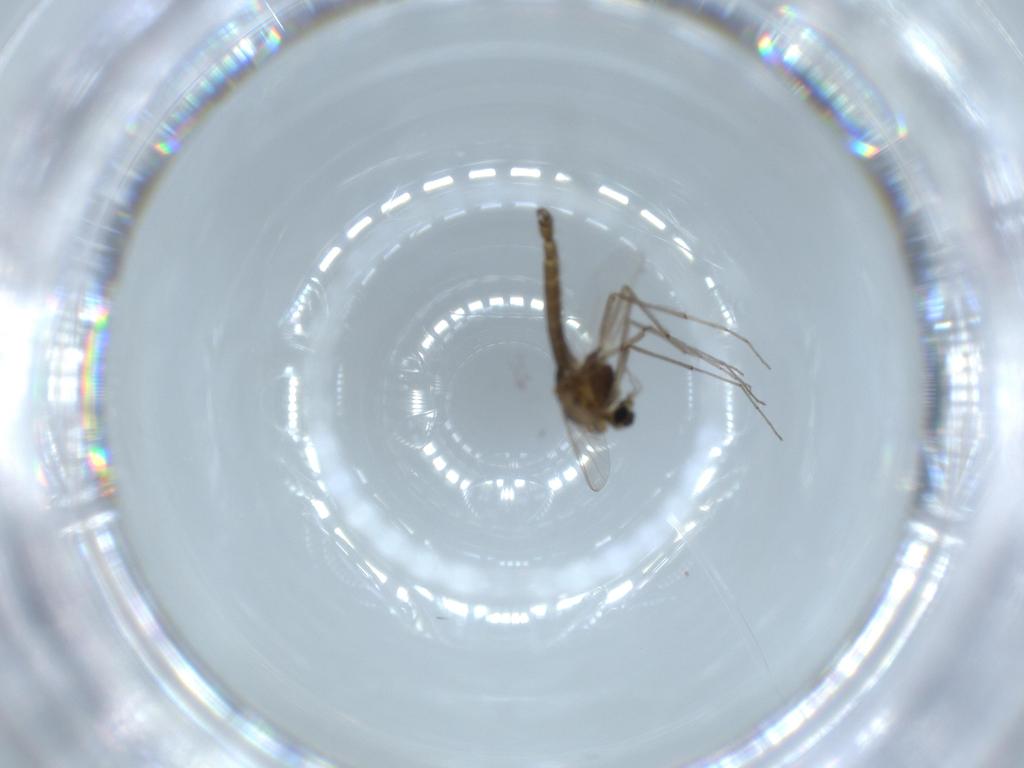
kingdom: Animalia
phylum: Arthropoda
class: Insecta
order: Diptera
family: Chironomidae
